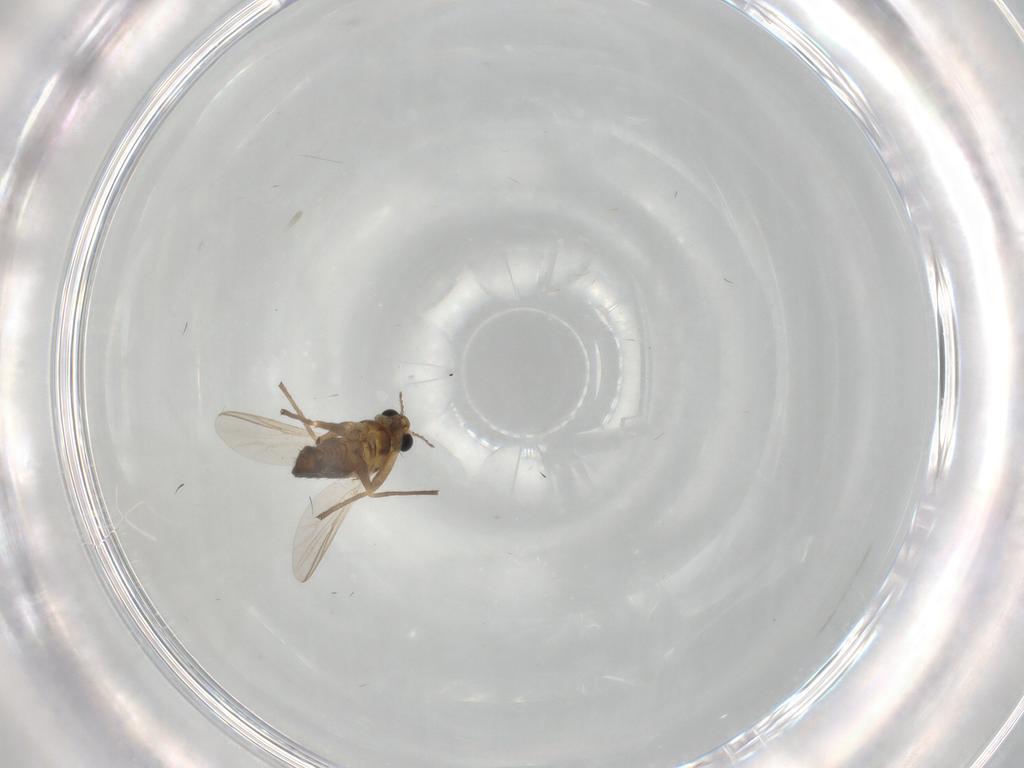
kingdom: Animalia
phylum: Arthropoda
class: Insecta
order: Diptera
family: Chironomidae
